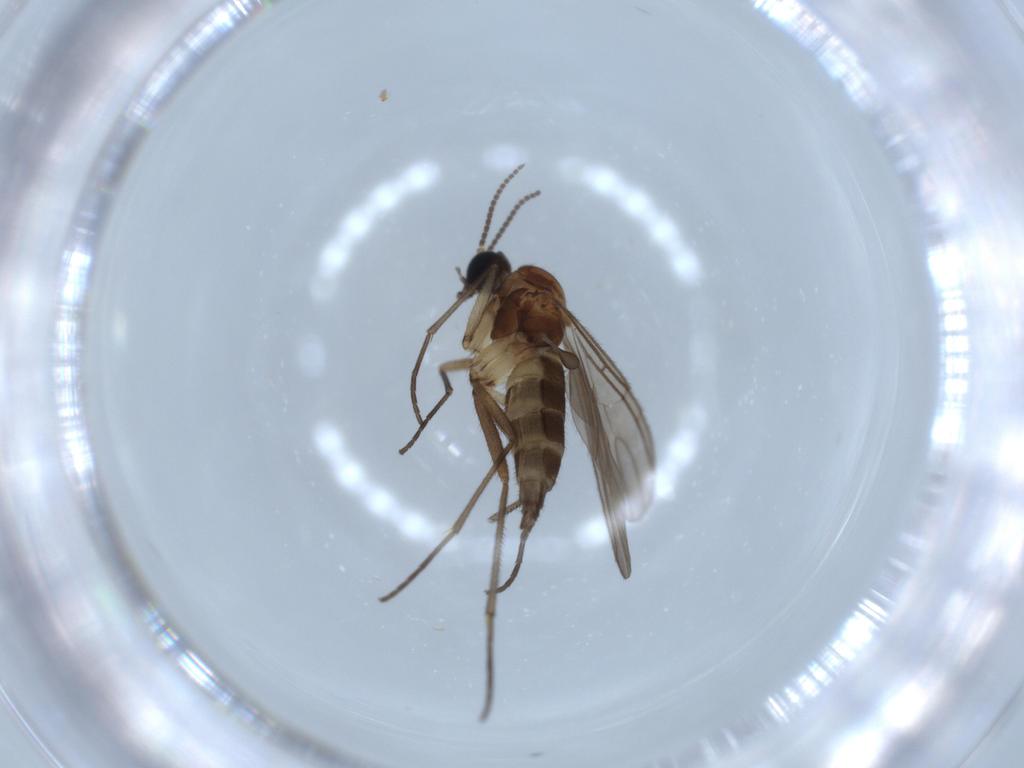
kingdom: Animalia
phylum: Arthropoda
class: Insecta
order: Diptera
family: Sciaridae
